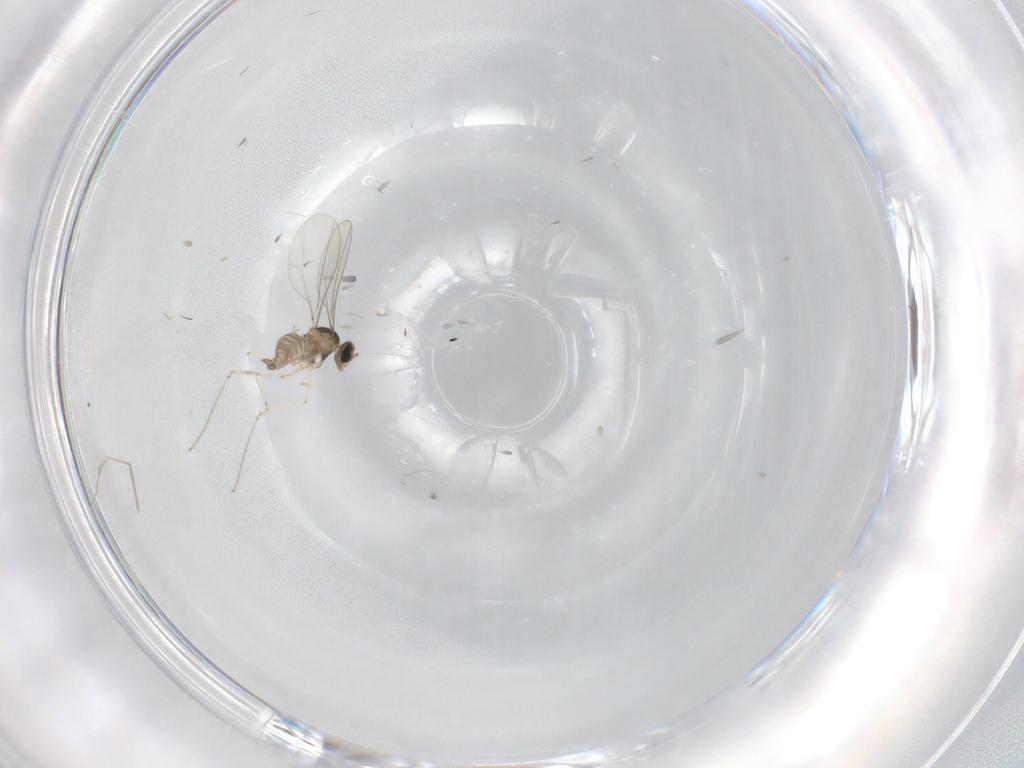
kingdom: Animalia
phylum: Arthropoda
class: Insecta
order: Diptera
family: Cecidomyiidae
